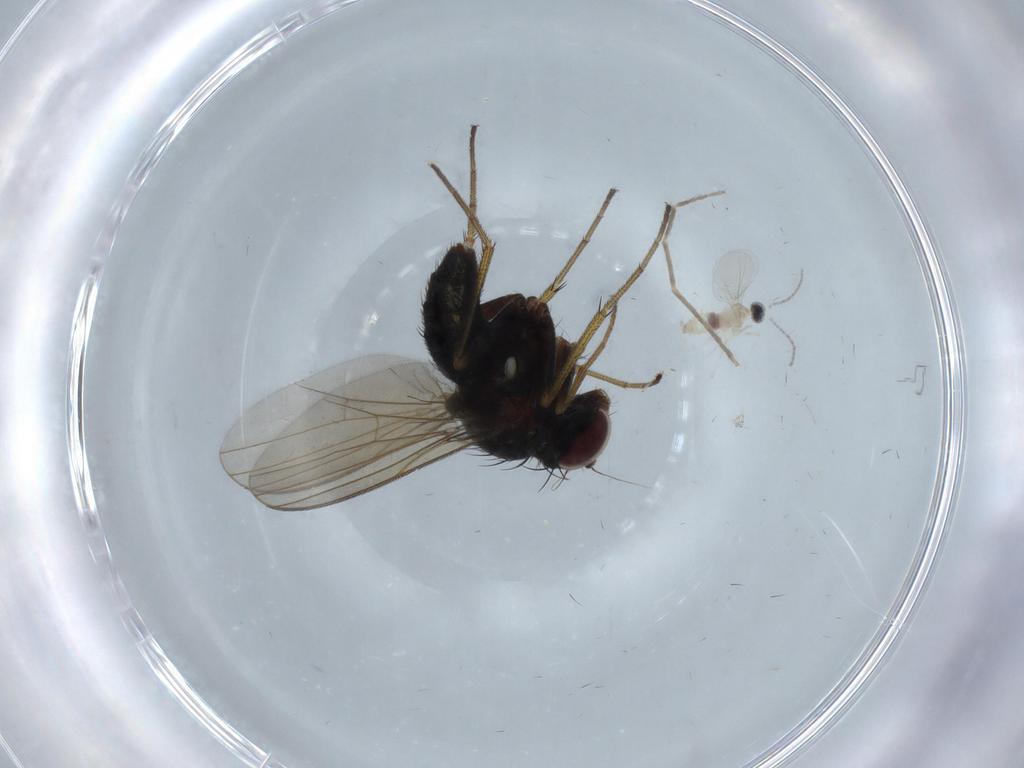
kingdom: Animalia
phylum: Arthropoda
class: Insecta
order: Diptera
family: Dolichopodidae
